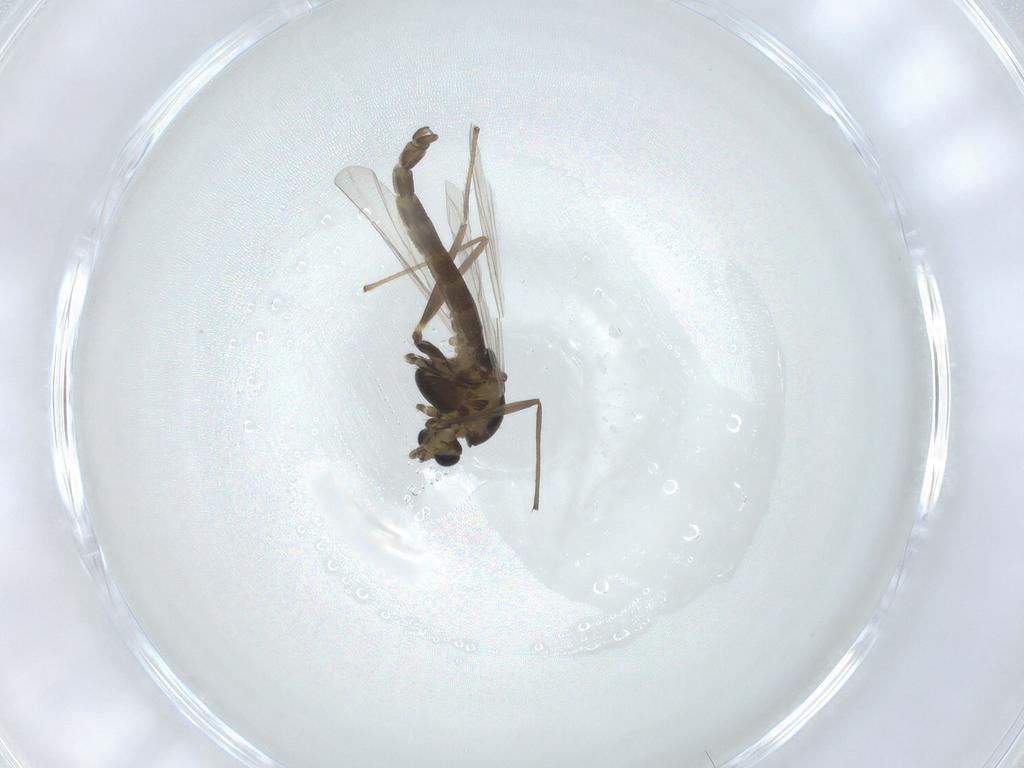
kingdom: Animalia
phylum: Arthropoda
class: Insecta
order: Diptera
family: Chironomidae
